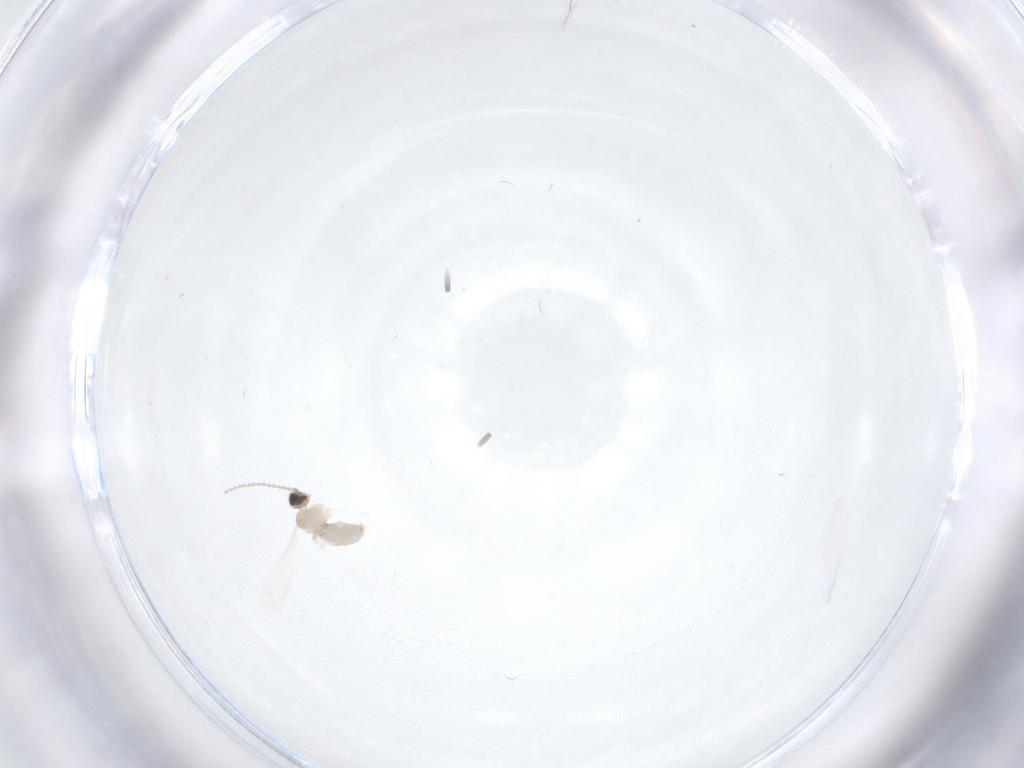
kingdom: Animalia
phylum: Arthropoda
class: Insecta
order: Diptera
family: Cecidomyiidae
